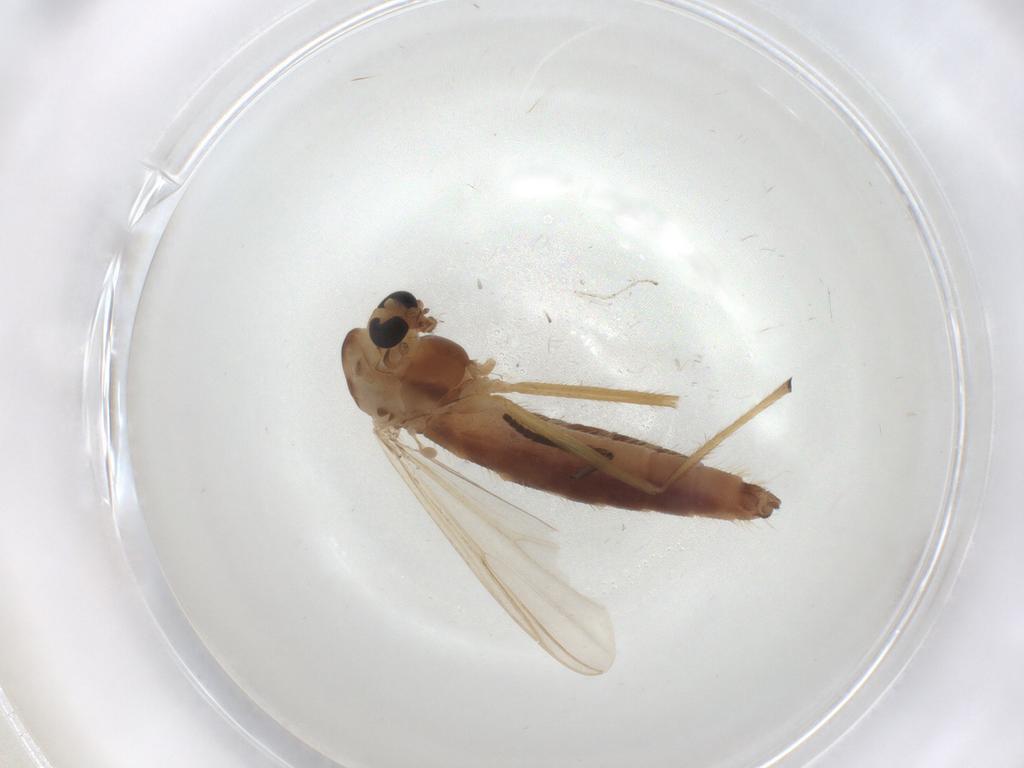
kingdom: Animalia
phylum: Arthropoda
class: Insecta
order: Diptera
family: Chironomidae
